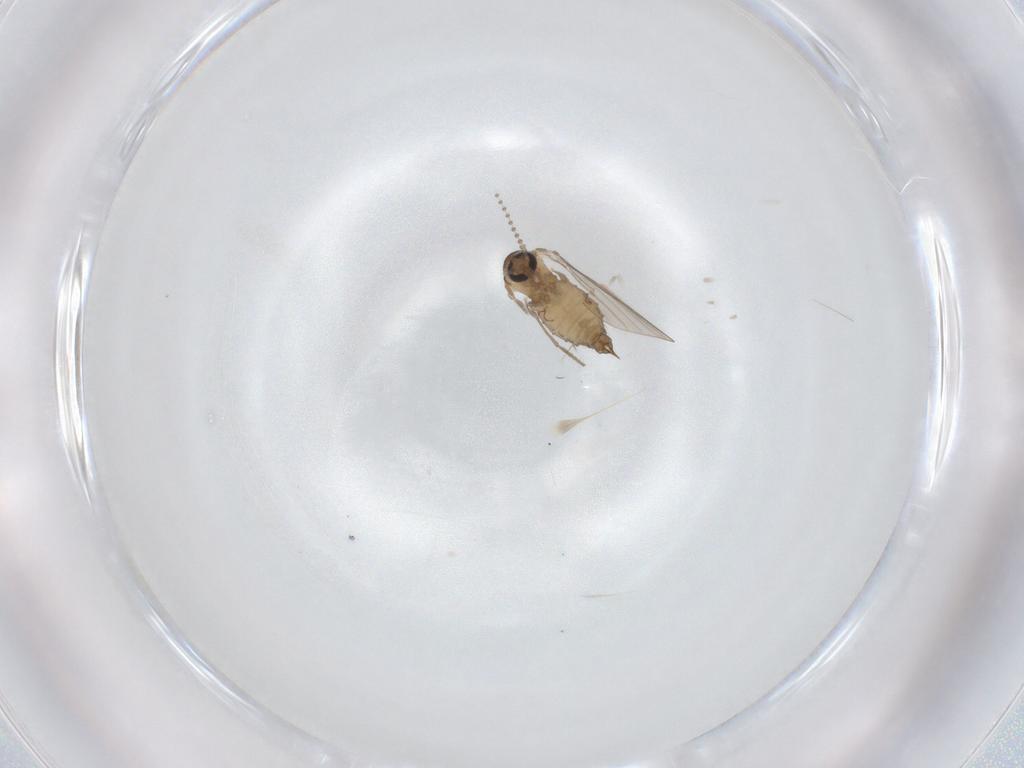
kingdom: Animalia
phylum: Arthropoda
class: Insecta
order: Diptera
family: Psychodidae
